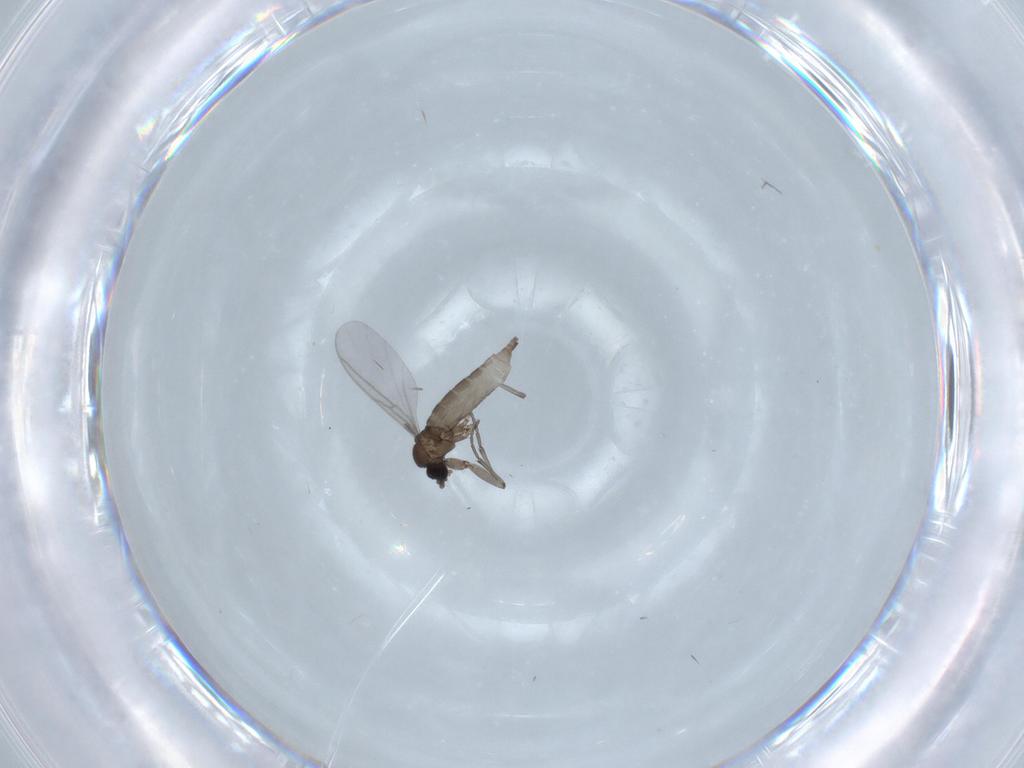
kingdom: Animalia
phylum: Arthropoda
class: Insecta
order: Diptera
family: Sciaridae
